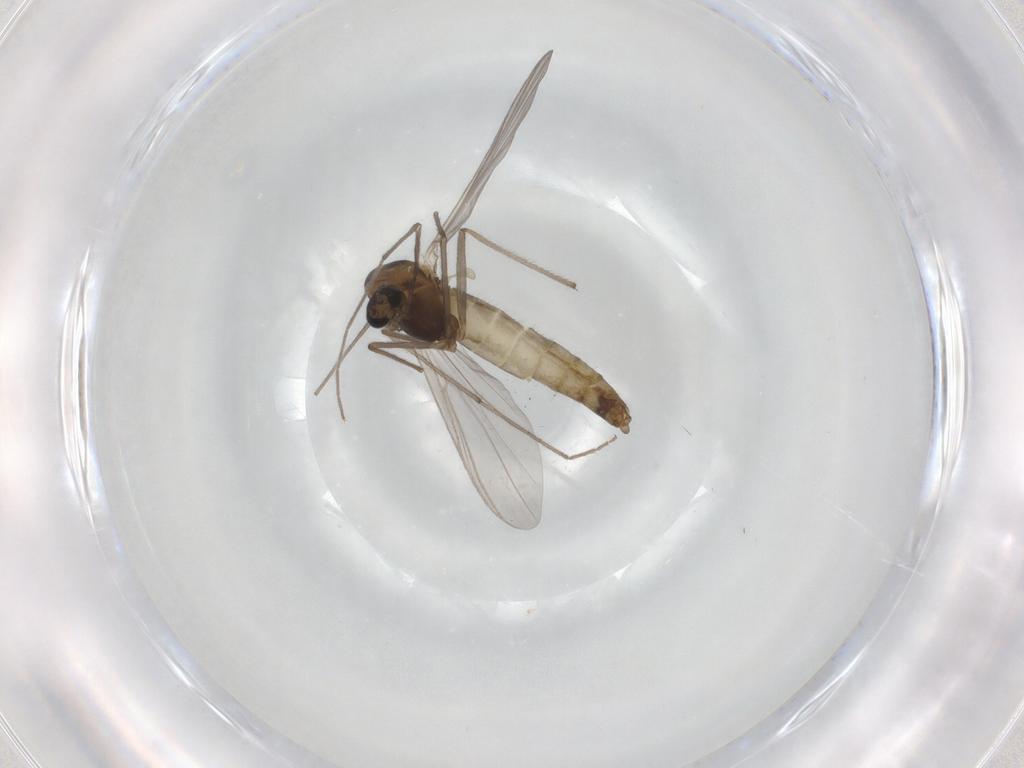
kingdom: Animalia
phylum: Arthropoda
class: Insecta
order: Diptera
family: Chironomidae
